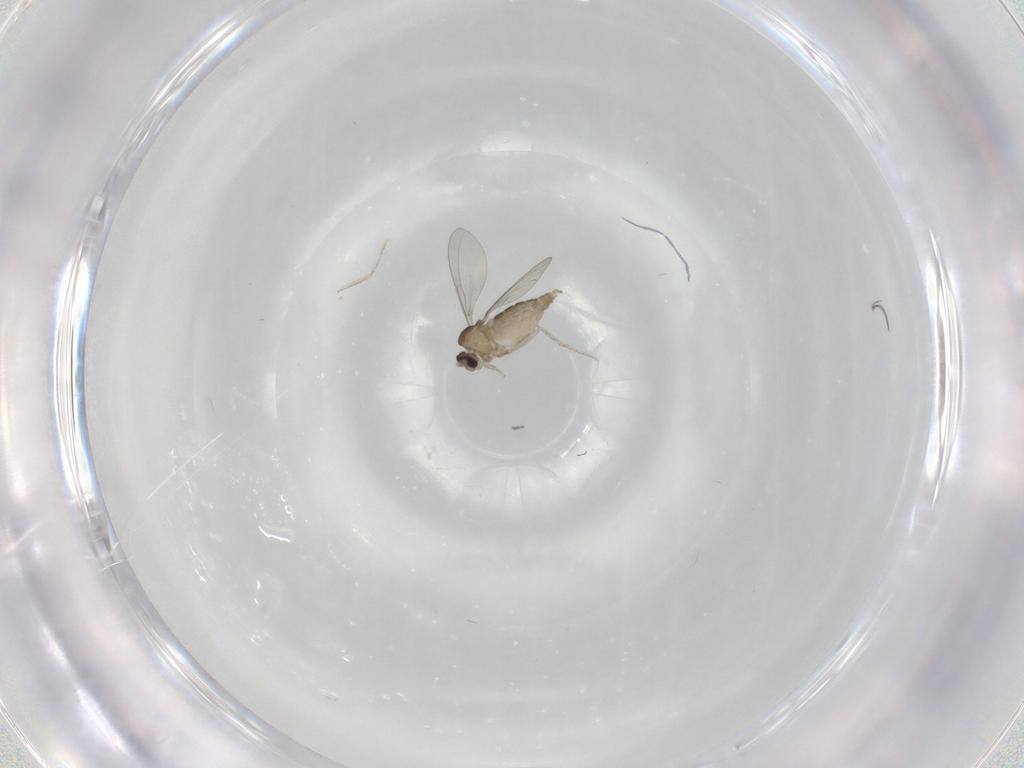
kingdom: Animalia
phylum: Arthropoda
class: Insecta
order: Diptera
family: Cecidomyiidae
